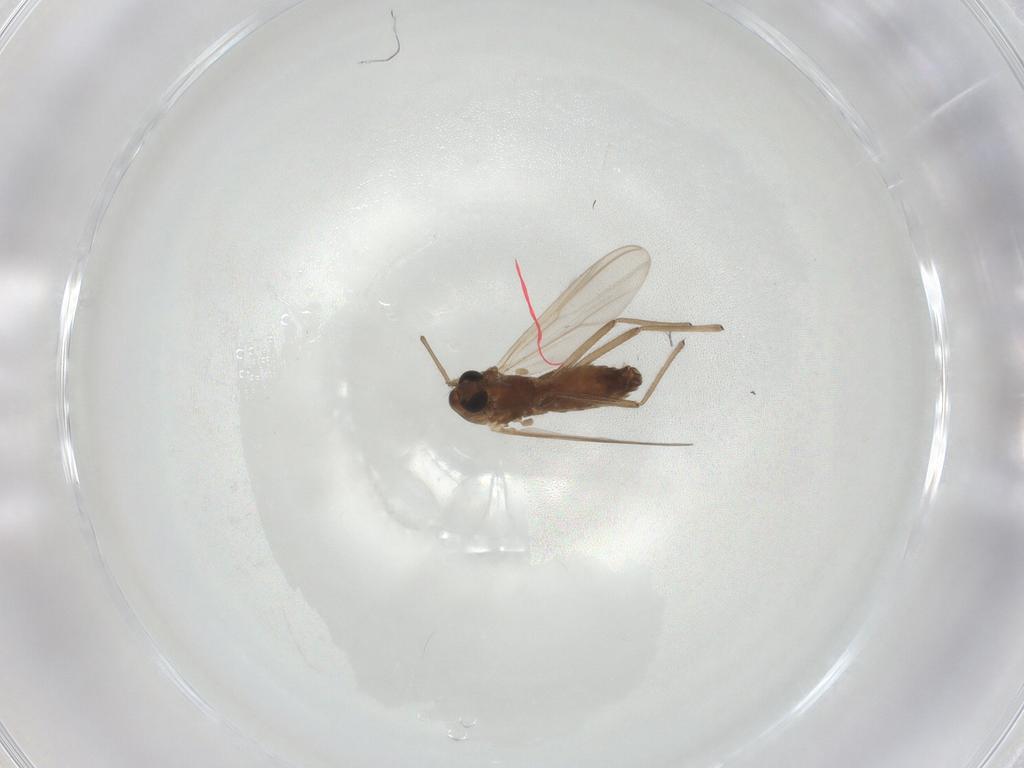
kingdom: Animalia
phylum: Arthropoda
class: Insecta
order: Diptera
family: Chironomidae
